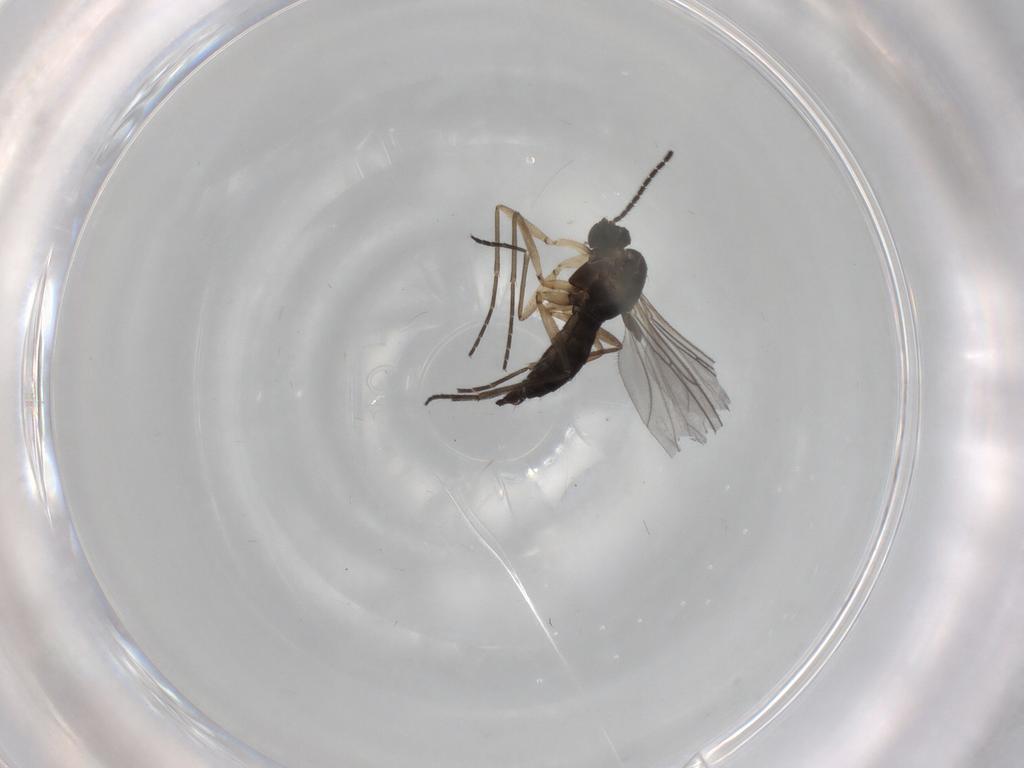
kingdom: Animalia
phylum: Arthropoda
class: Insecta
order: Diptera
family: Sciaridae
